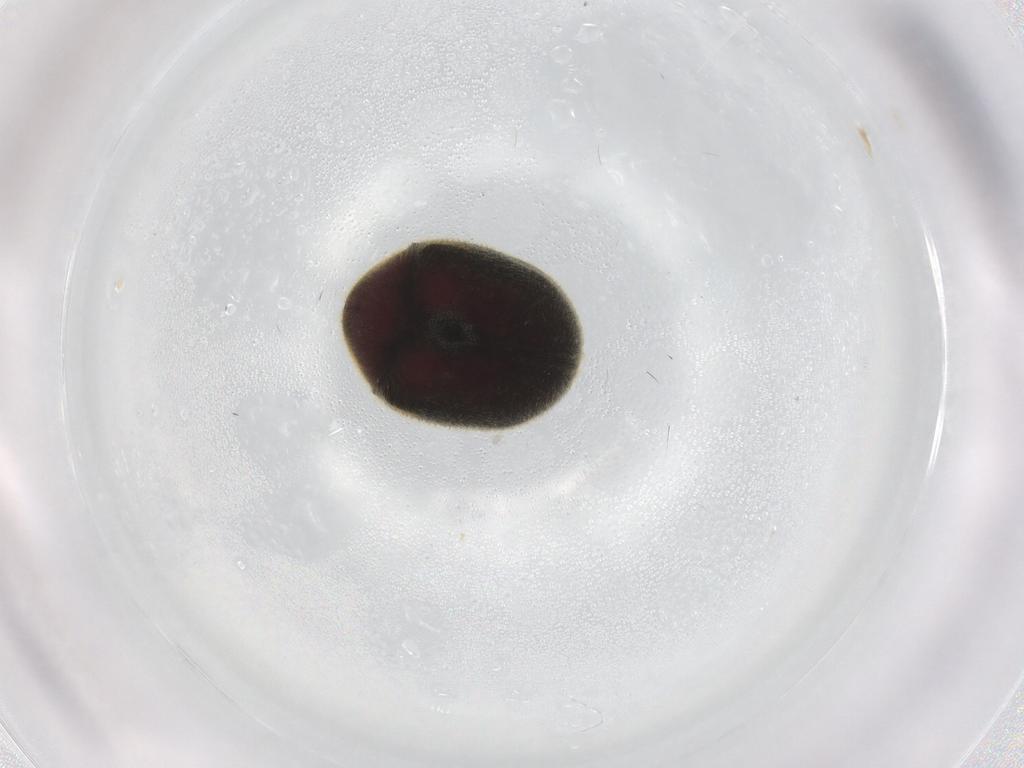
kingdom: Animalia
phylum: Arthropoda
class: Insecta
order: Coleoptera
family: Ptinidae
